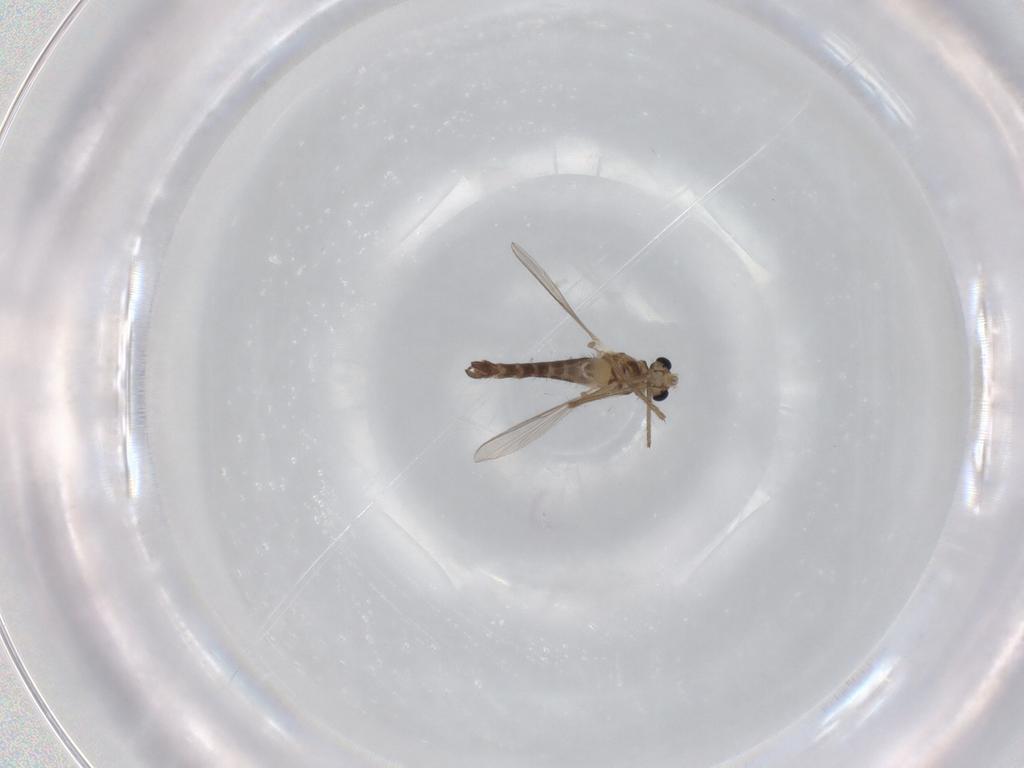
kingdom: Animalia
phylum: Arthropoda
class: Insecta
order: Diptera
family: Chironomidae
